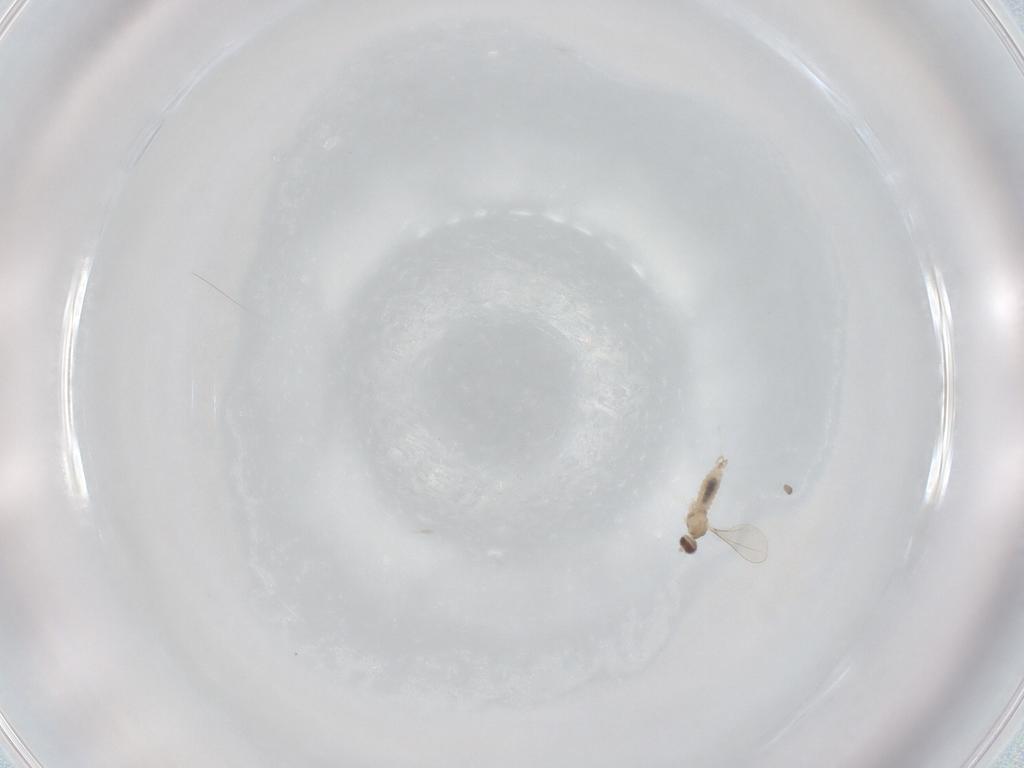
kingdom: Animalia
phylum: Arthropoda
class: Insecta
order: Diptera
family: Cecidomyiidae
